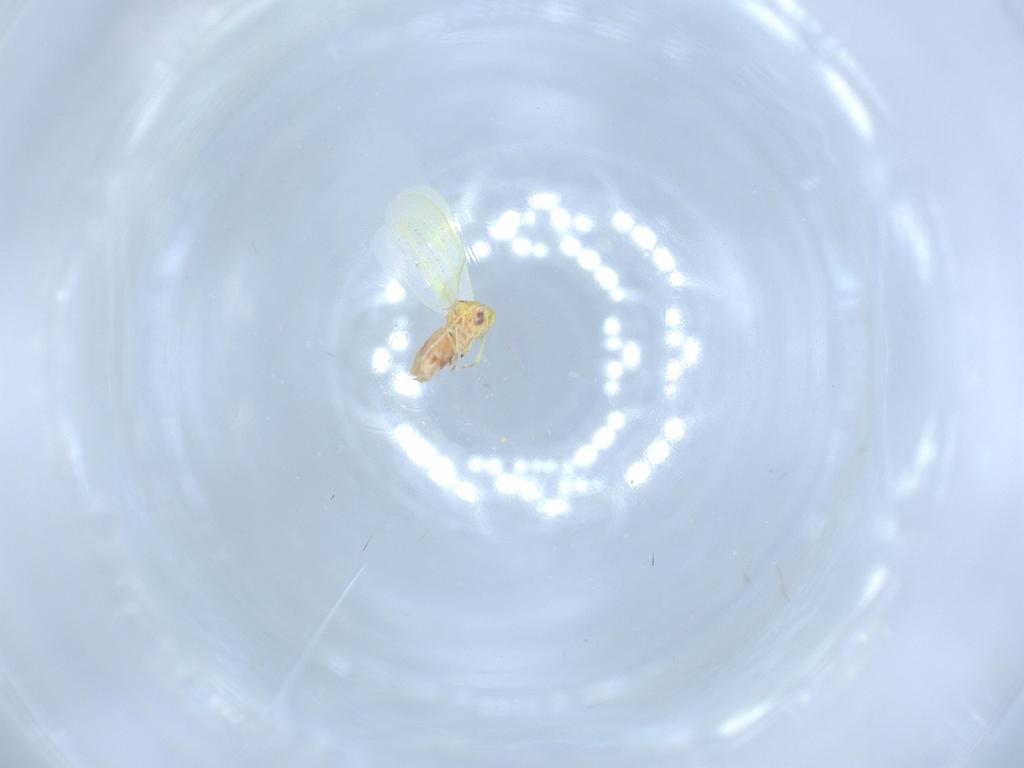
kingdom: Animalia
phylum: Arthropoda
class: Insecta
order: Hemiptera
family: Aleyrodidae
